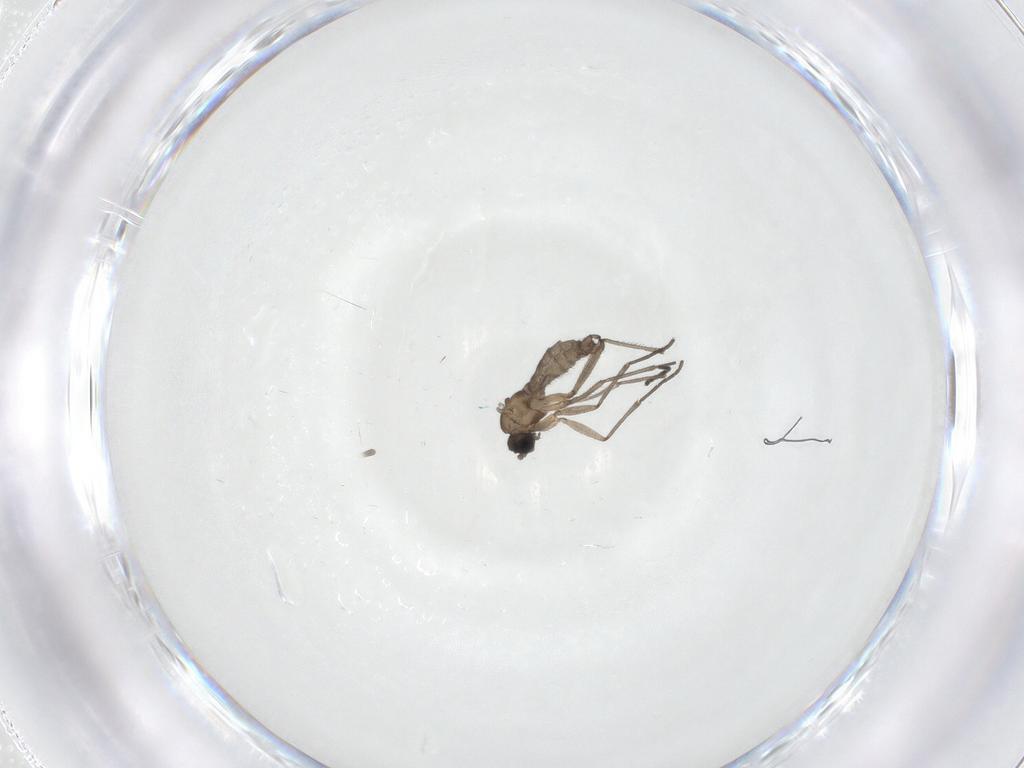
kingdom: Animalia
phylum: Arthropoda
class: Insecta
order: Diptera
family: Sciaridae
